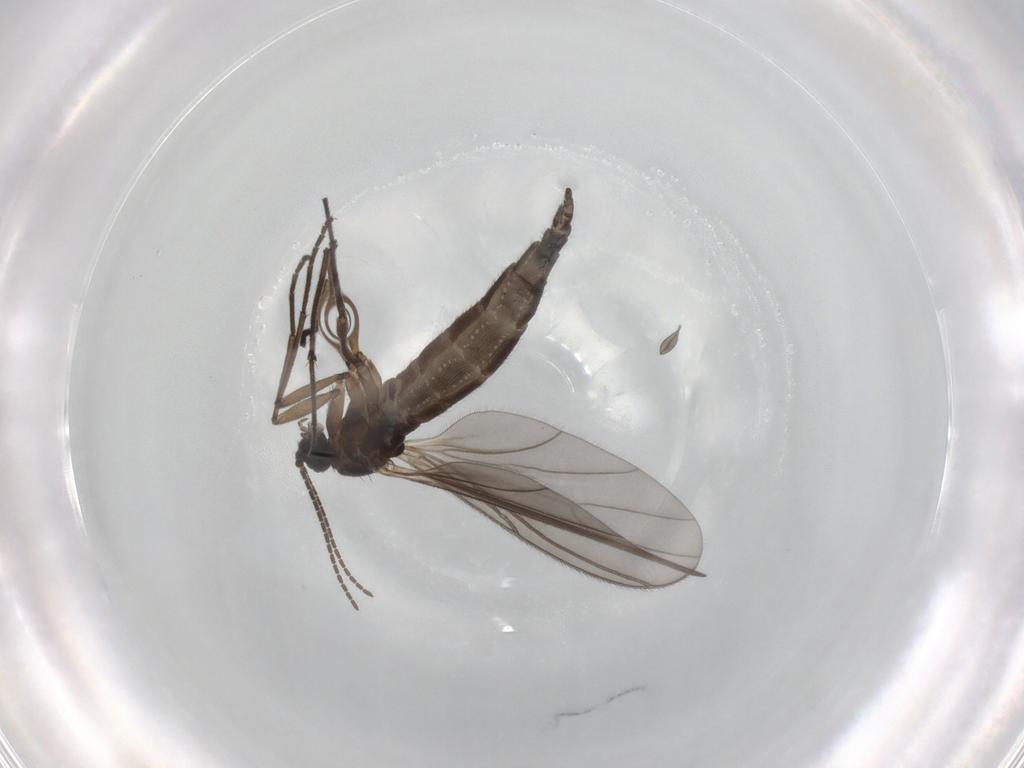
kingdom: Animalia
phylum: Arthropoda
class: Insecta
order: Diptera
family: Sciaridae
